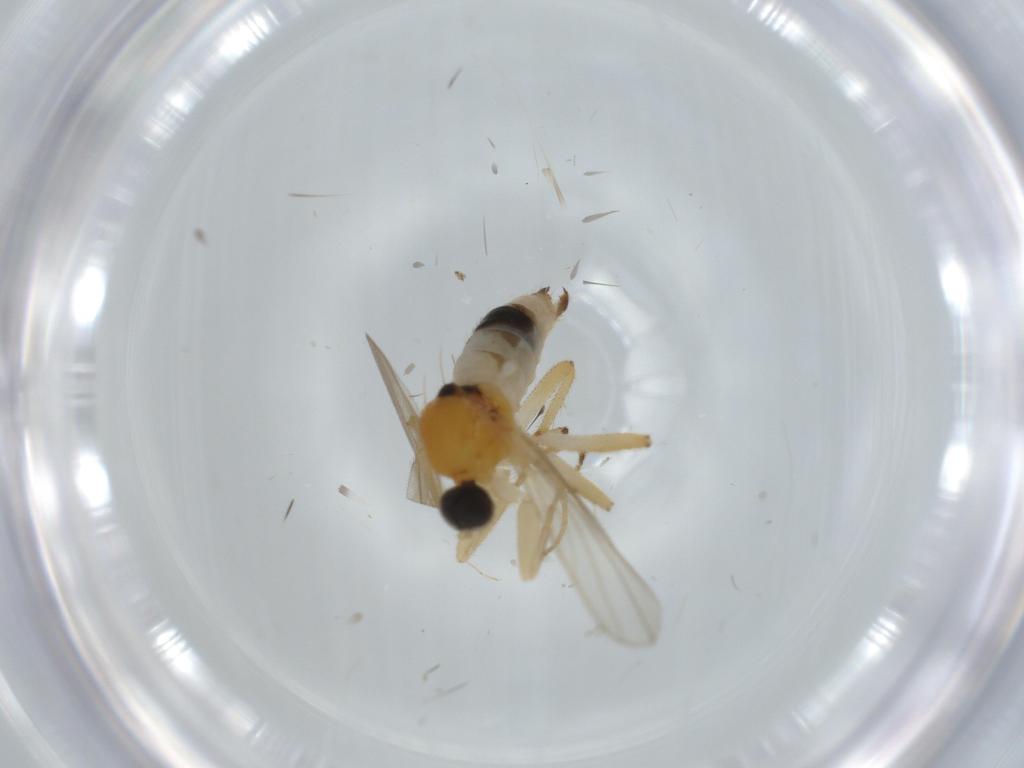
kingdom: Animalia
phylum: Arthropoda
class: Insecta
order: Diptera
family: Hybotidae
